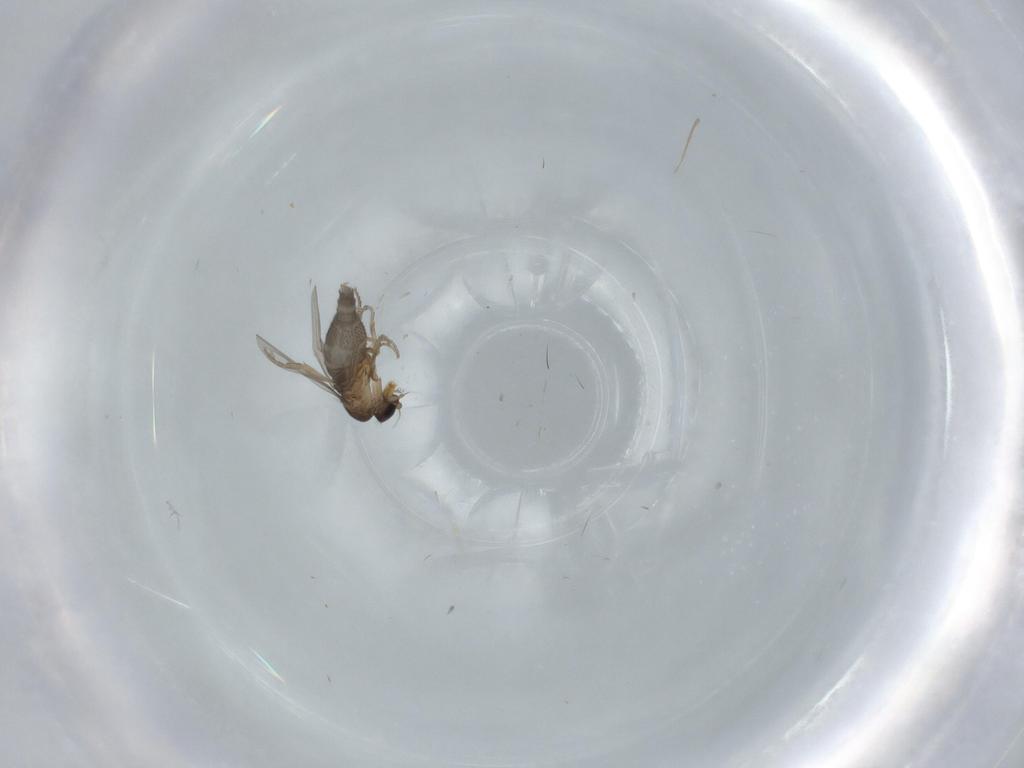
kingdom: Animalia
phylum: Arthropoda
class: Insecta
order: Diptera
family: Phoridae
